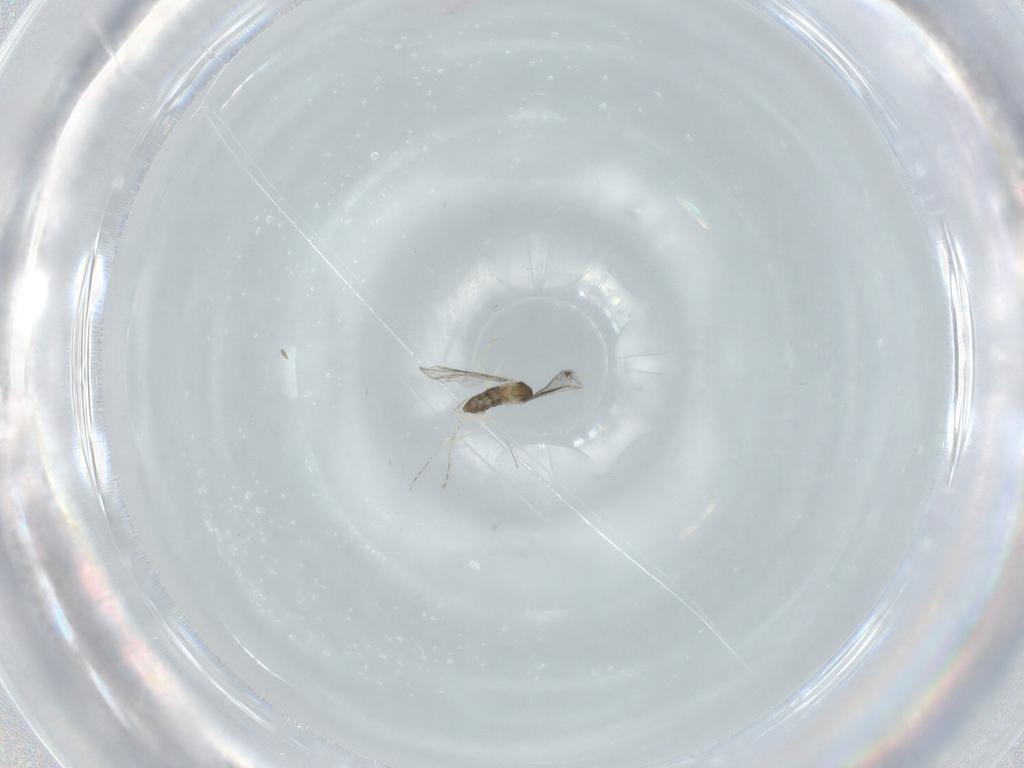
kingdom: Animalia
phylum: Arthropoda
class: Insecta
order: Diptera
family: Cecidomyiidae
